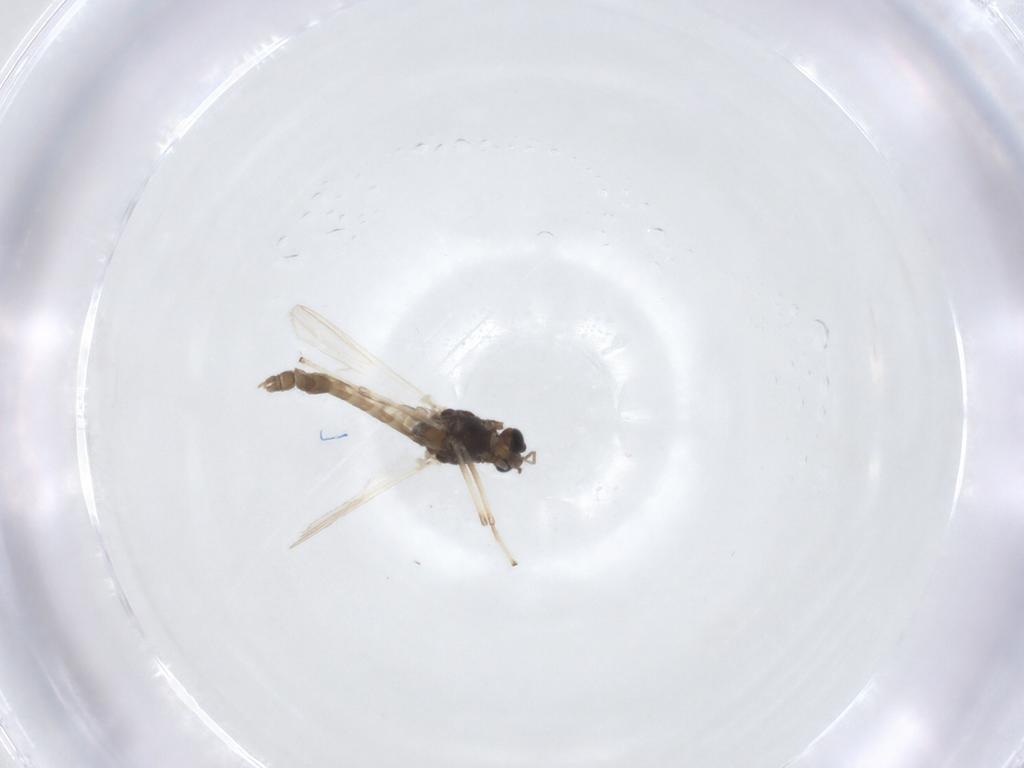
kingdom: Animalia
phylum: Arthropoda
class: Insecta
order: Diptera
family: Chironomidae
